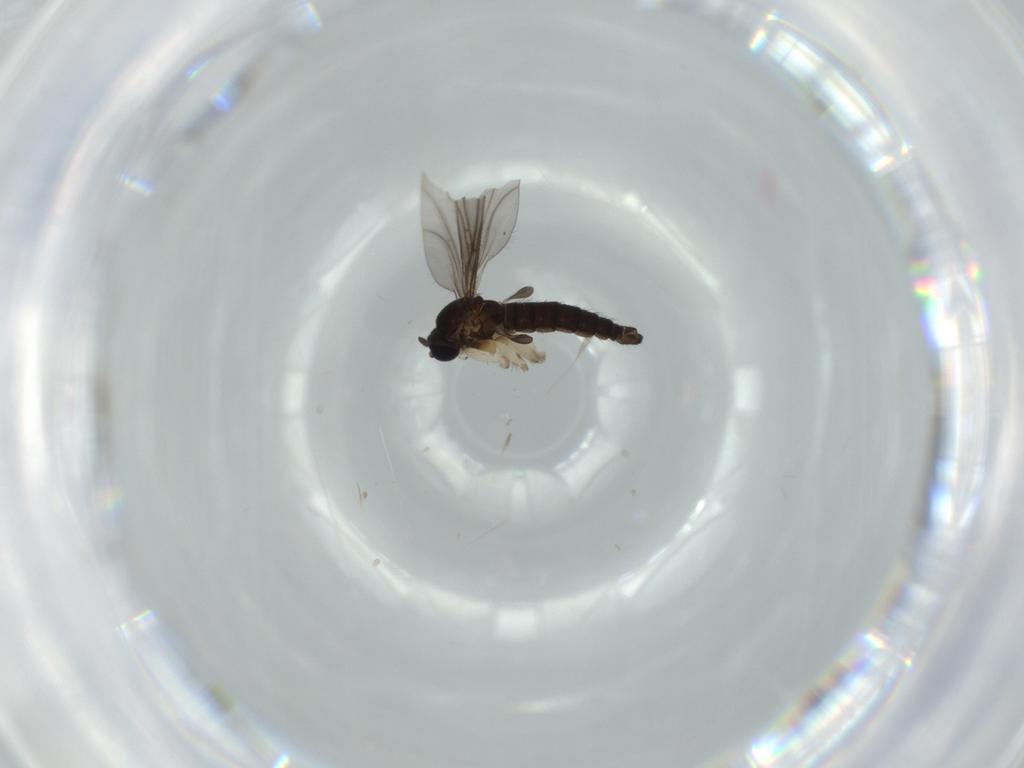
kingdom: Animalia
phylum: Arthropoda
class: Insecta
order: Diptera
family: Sciaridae
